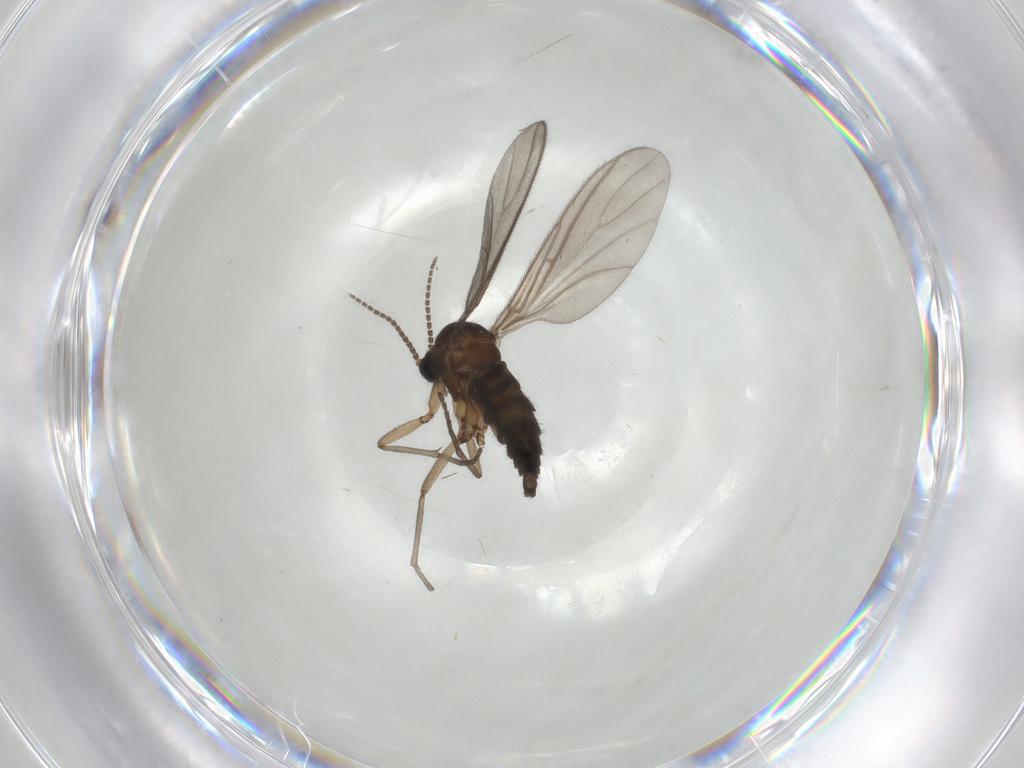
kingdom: Animalia
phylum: Arthropoda
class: Insecta
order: Diptera
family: Sciaridae
